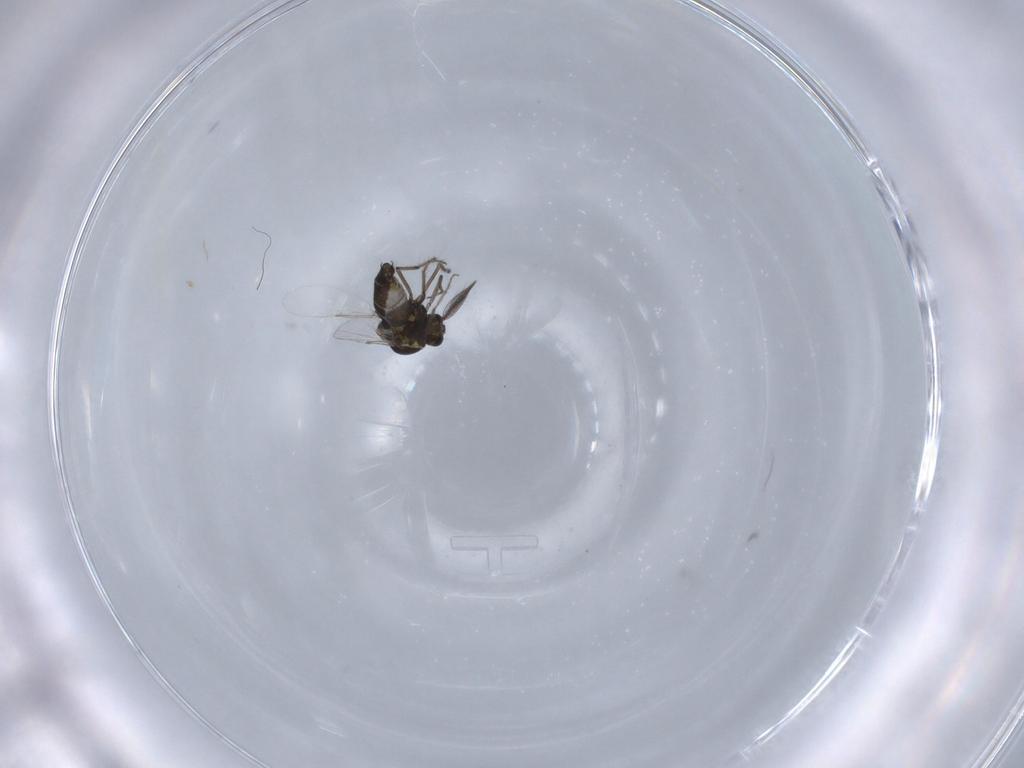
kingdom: Animalia
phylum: Arthropoda
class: Insecta
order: Diptera
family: Ceratopogonidae
